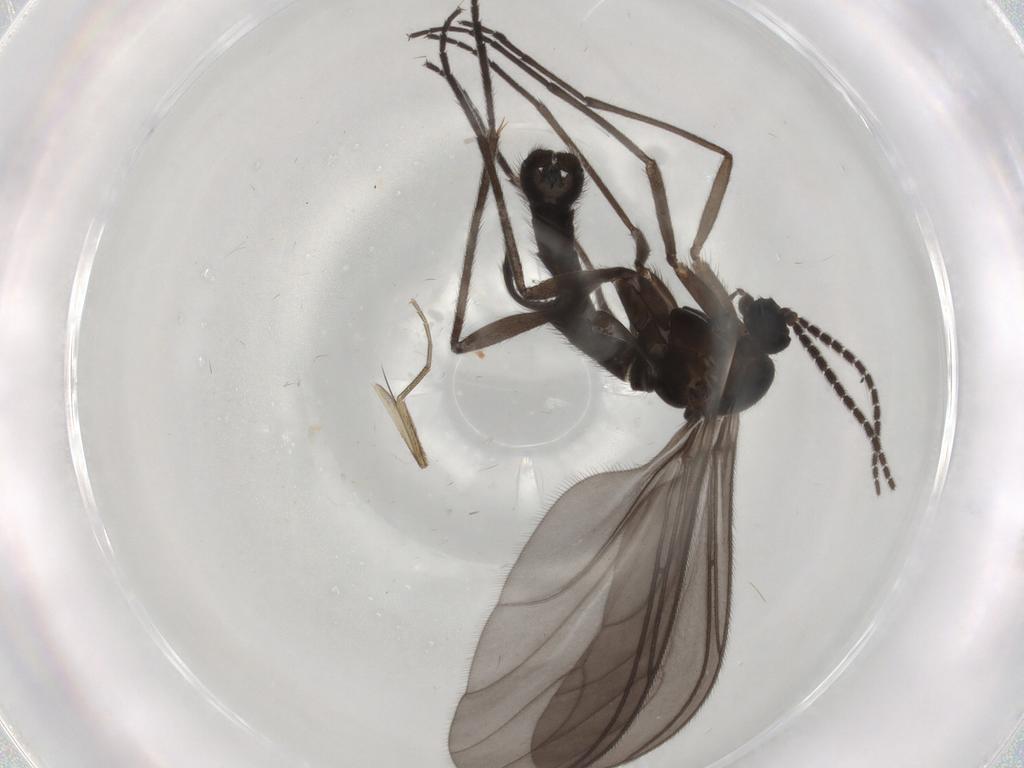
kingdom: Animalia
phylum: Arthropoda
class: Insecta
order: Diptera
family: Sciaridae
